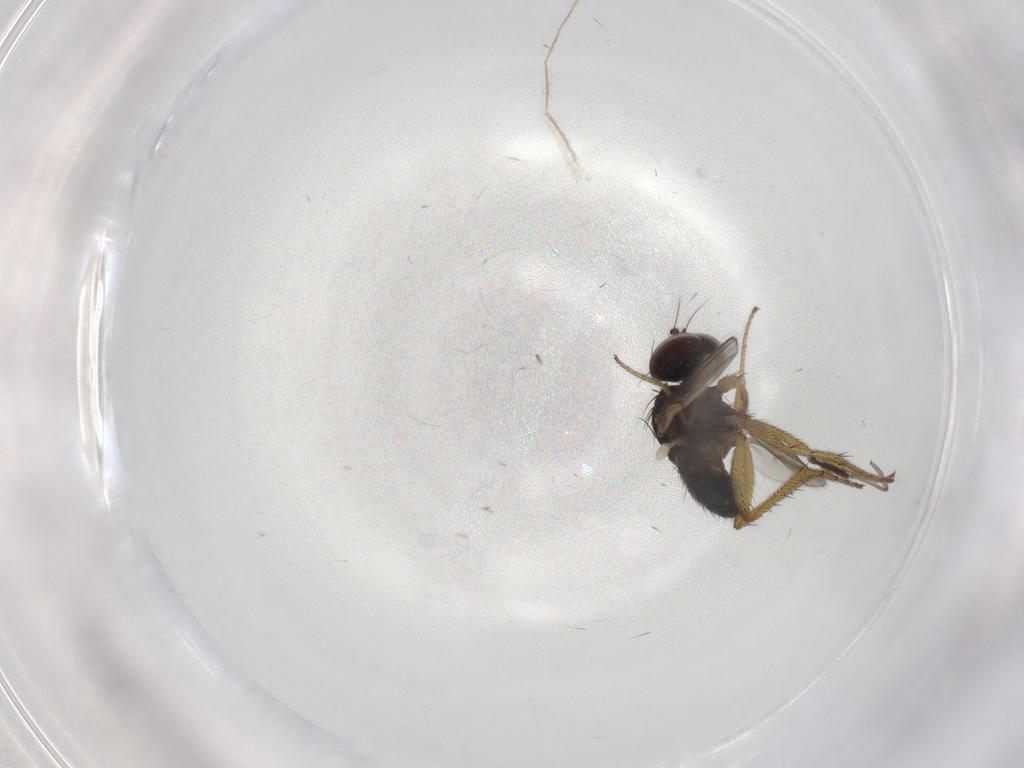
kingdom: Animalia
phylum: Arthropoda
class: Insecta
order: Diptera
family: Sciaridae
